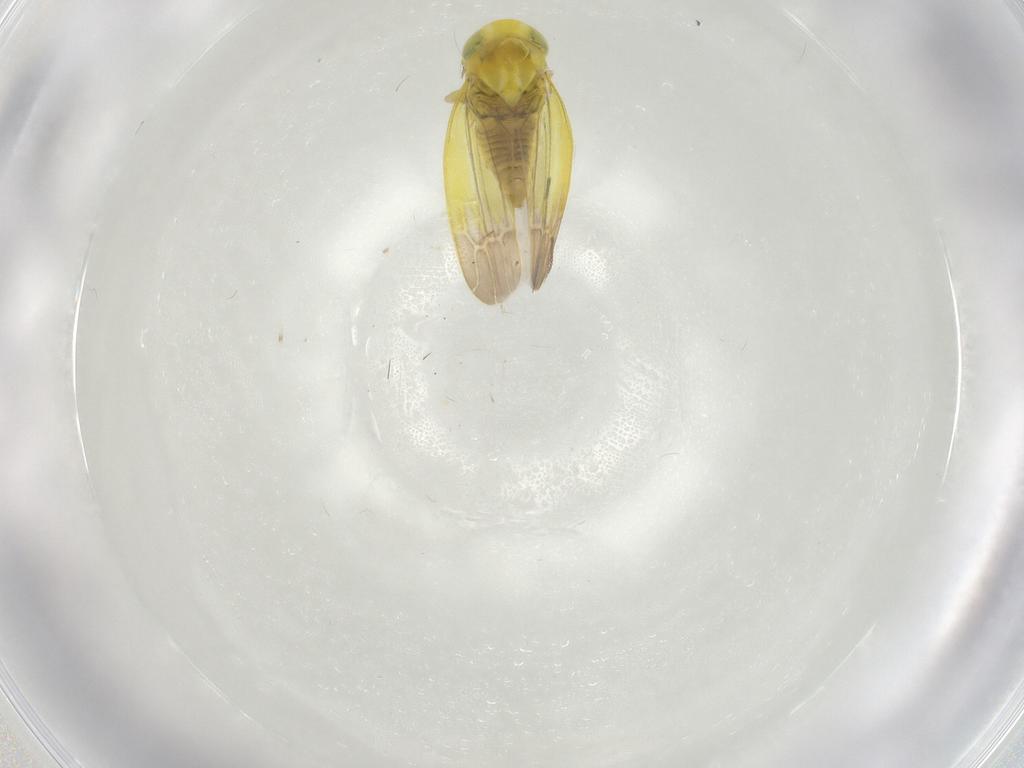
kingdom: Animalia
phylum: Arthropoda
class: Insecta
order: Hemiptera
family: Cicadellidae
